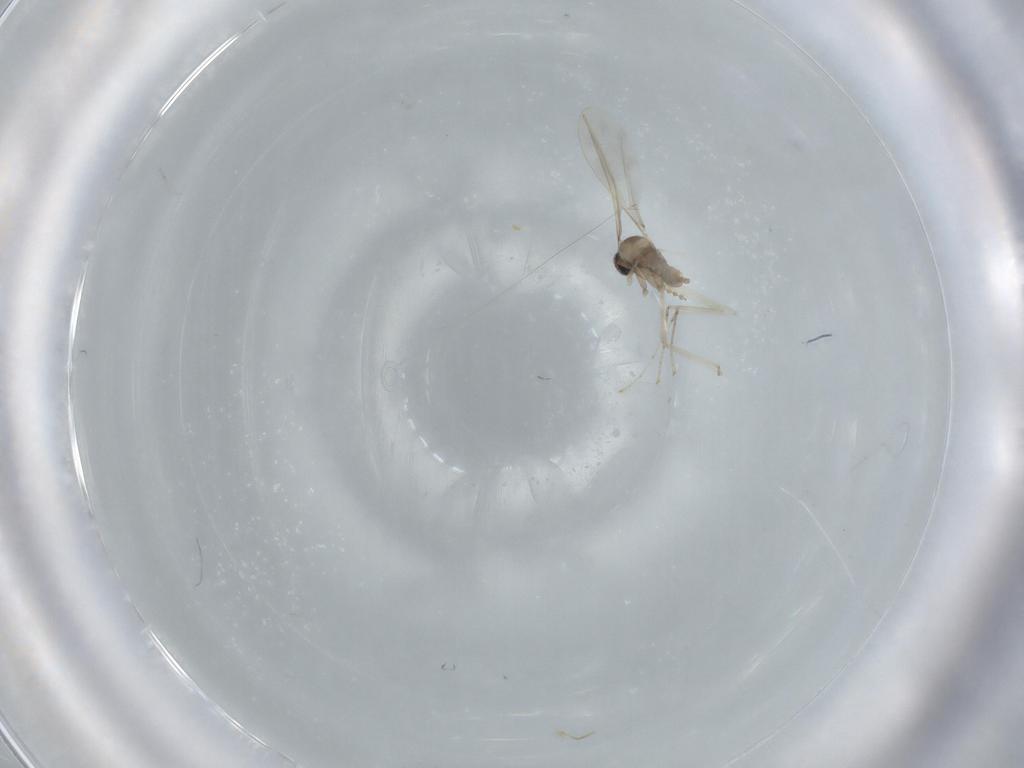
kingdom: Animalia
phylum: Arthropoda
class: Insecta
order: Diptera
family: Cecidomyiidae
